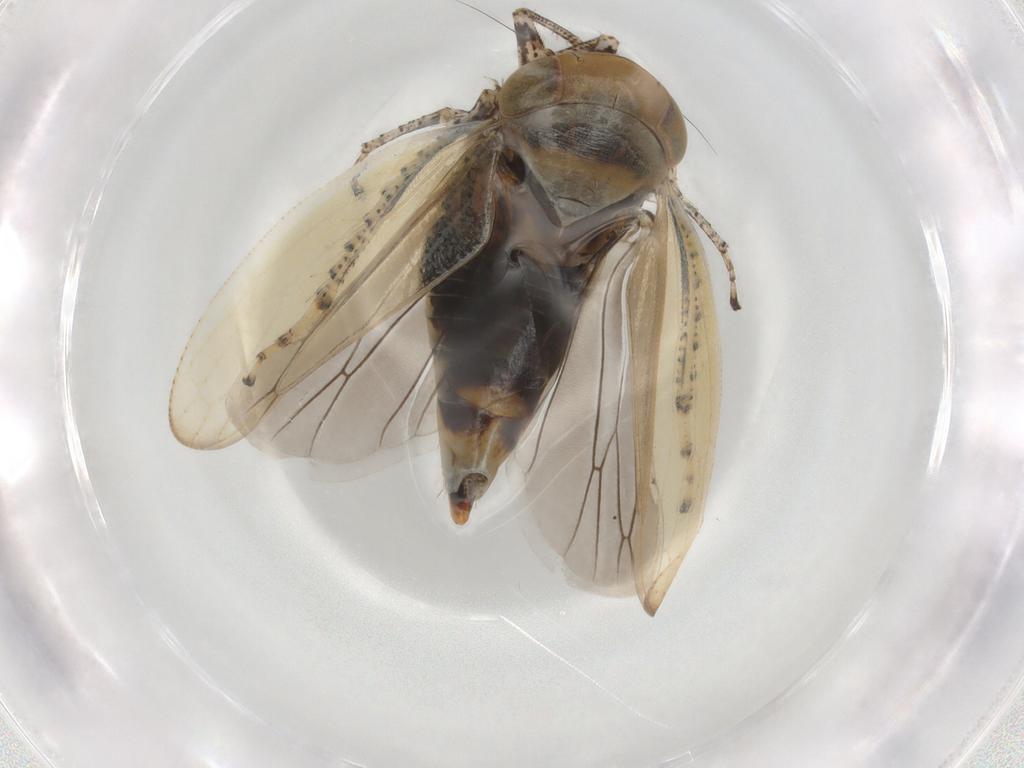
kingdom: Animalia
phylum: Arthropoda
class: Insecta
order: Hemiptera
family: Cicadellidae
